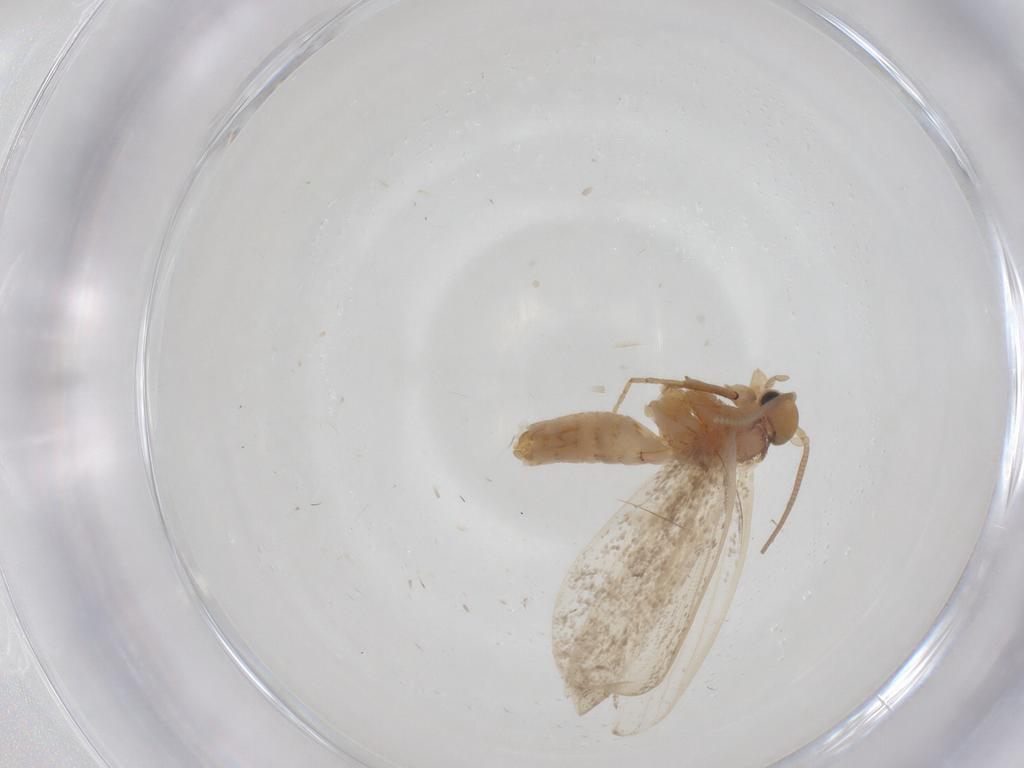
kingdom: Animalia
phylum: Arthropoda
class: Insecta
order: Lepidoptera
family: Dryadaulidae
